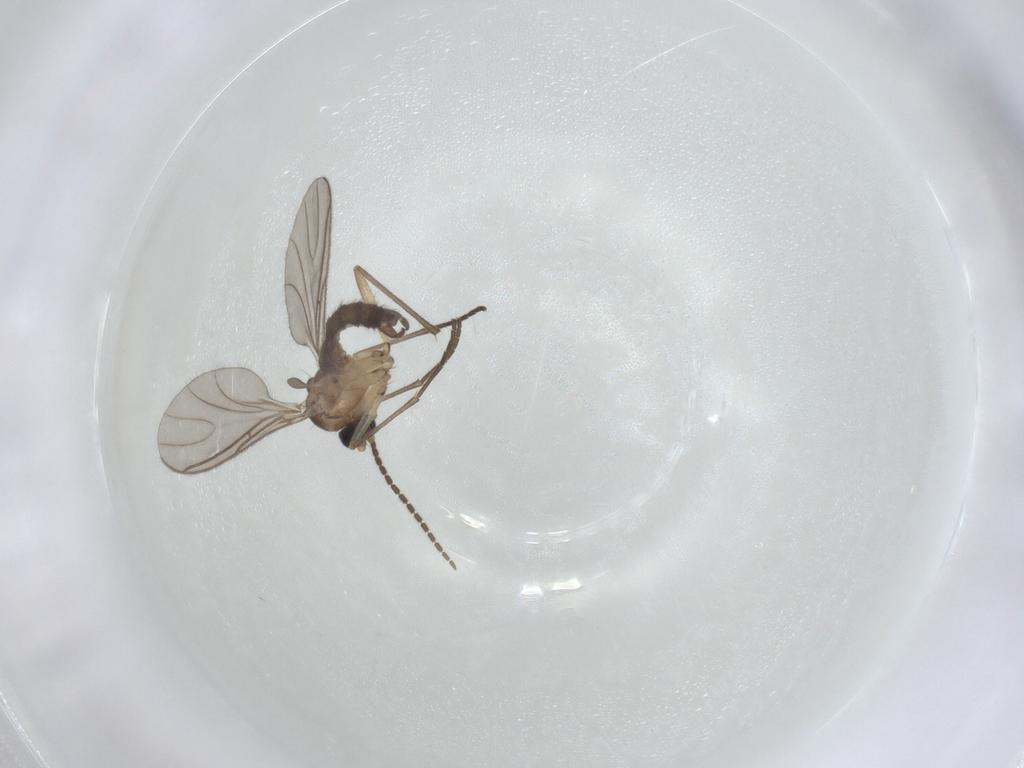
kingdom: Animalia
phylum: Arthropoda
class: Insecta
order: Diptera
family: Sciaridae
